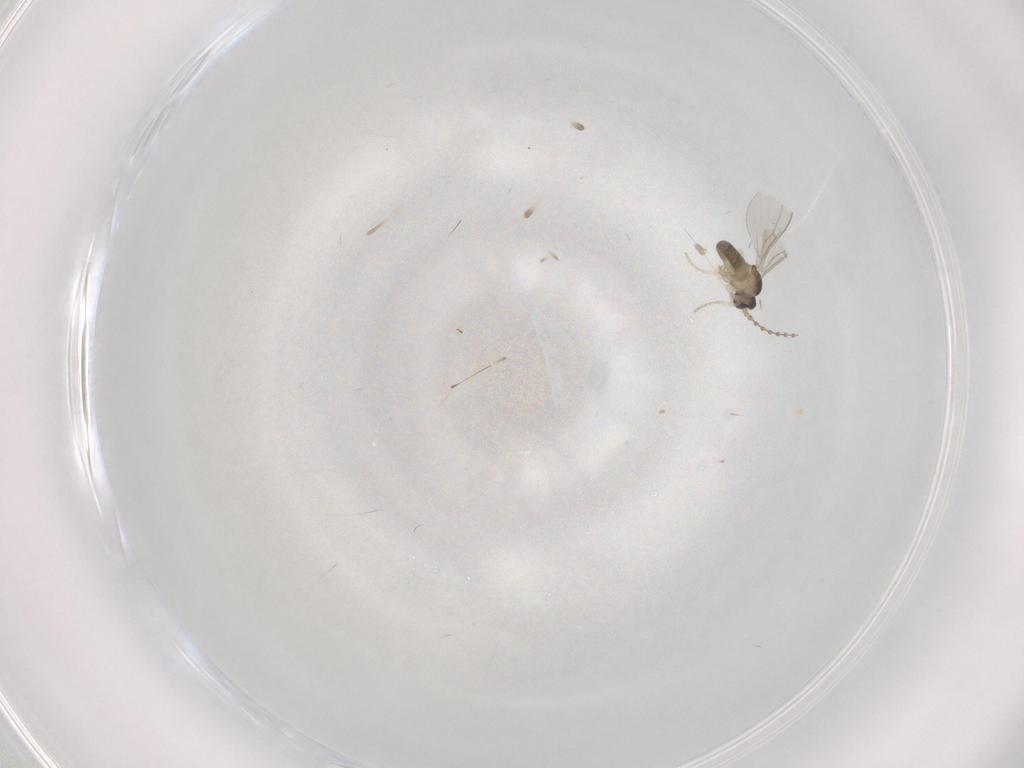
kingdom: Animalia
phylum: Arthropoda
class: Insecta
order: Diptera
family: Cecidomyiidae
